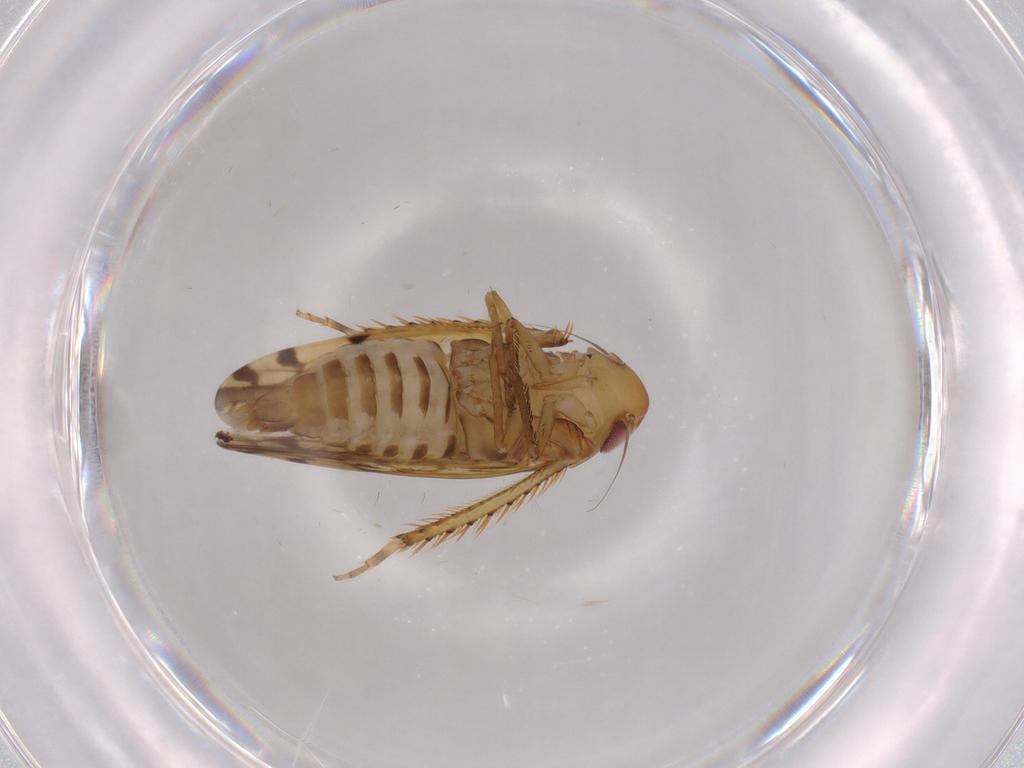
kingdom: Animalia
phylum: Arthropoda
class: Insecta
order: Hemiptera
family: Cicadellidae
